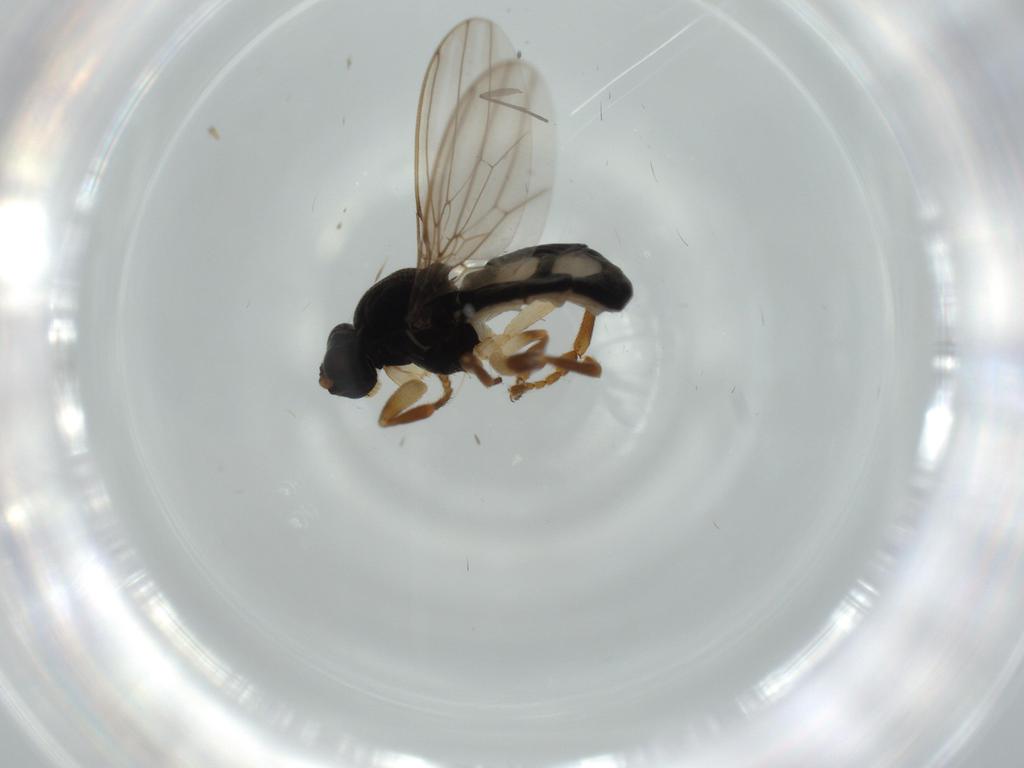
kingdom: Animalia
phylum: Arthropoda
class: Insecta
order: Diptera
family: Sphaeroceridae
